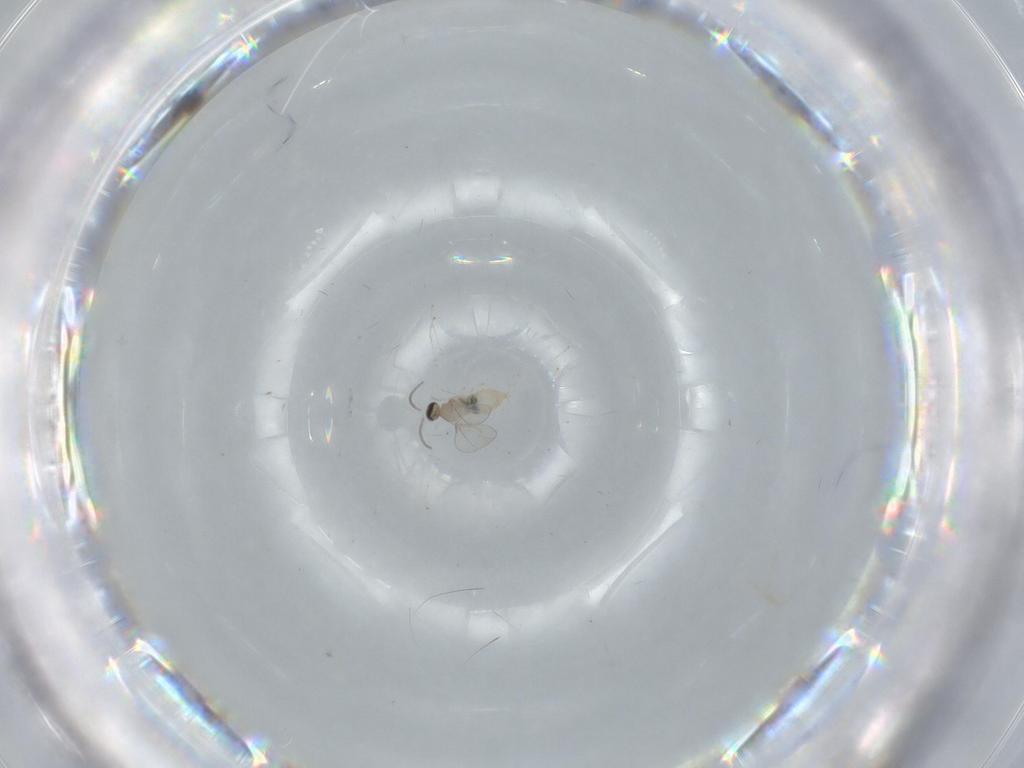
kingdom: Animalia
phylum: Arthropoda
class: Insecta
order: Diptera
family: Cecidomyiidae
